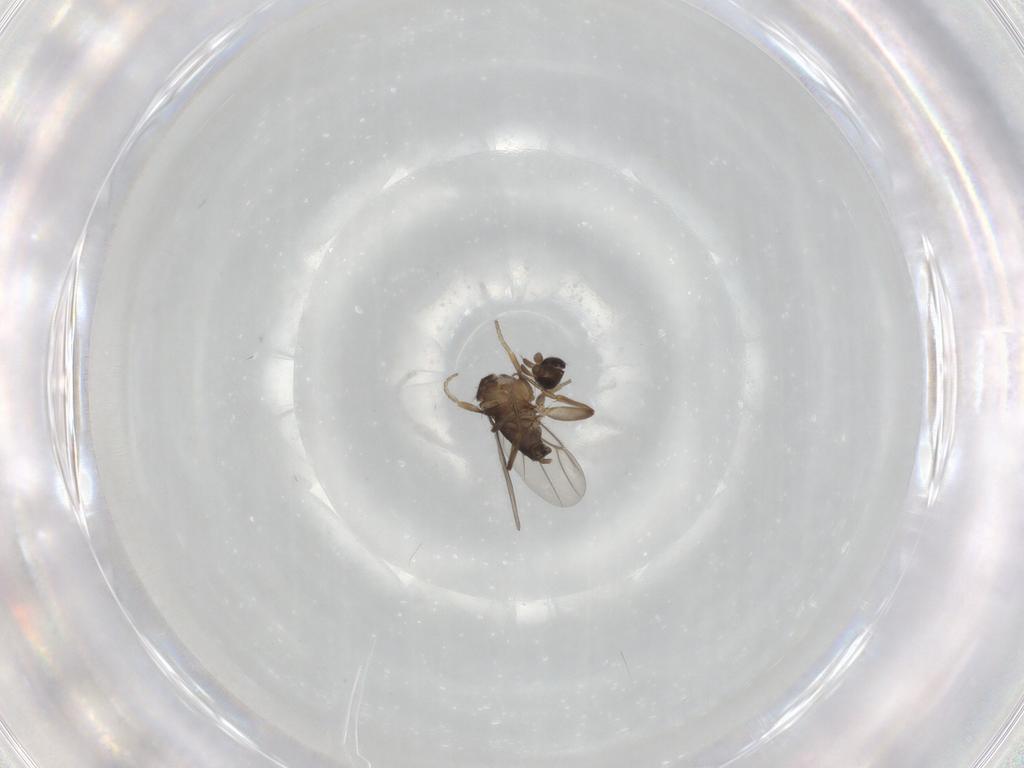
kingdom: Animalia
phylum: Arthropoda
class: Insecta
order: Diptera
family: Phoridae
